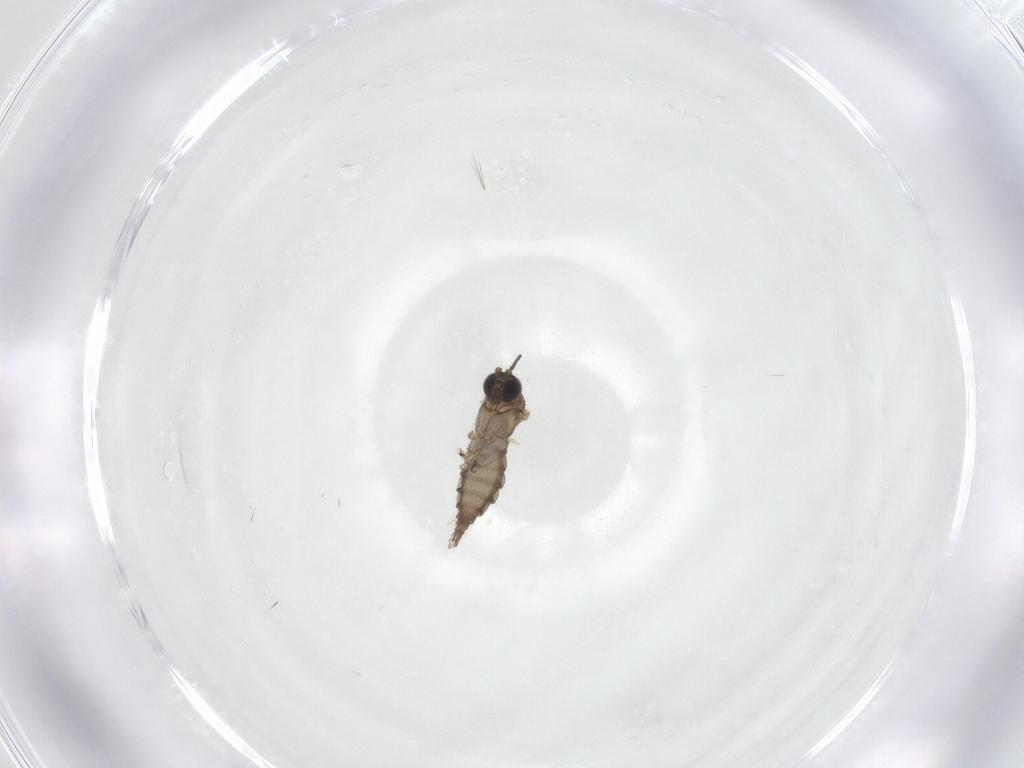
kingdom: Animalia
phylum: Arthropoda
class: Insecta
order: Diptera
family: Sciaridae
